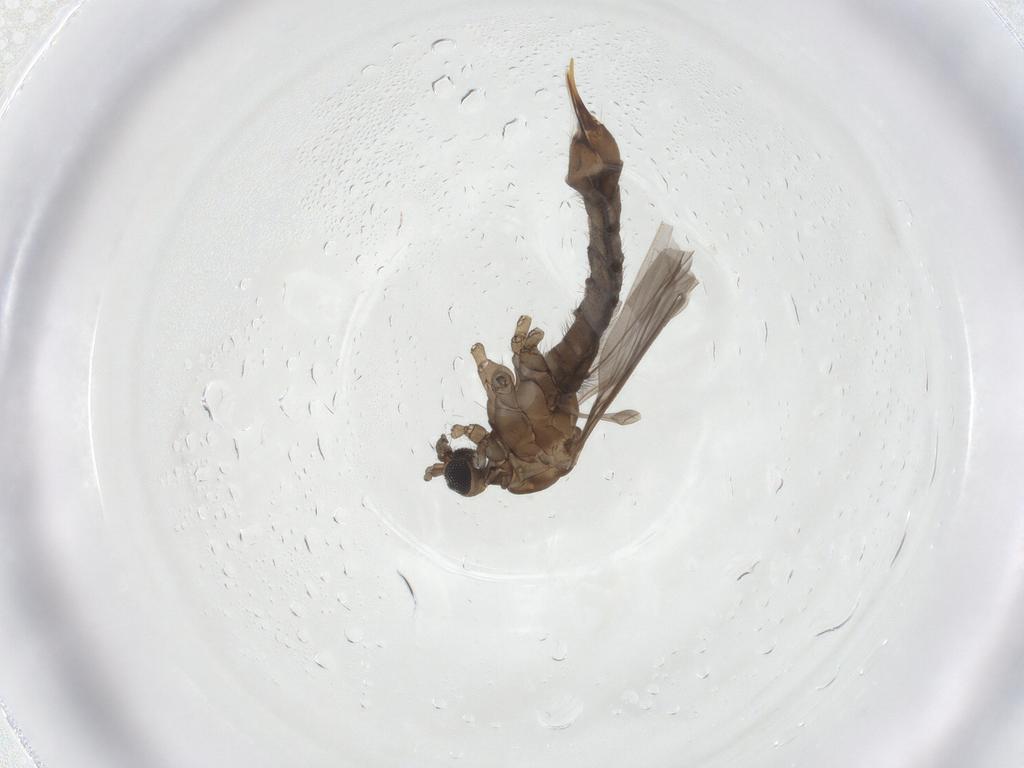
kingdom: Animalia
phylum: Arthropoda
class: Insecta
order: Diptera
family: Limoniidae
